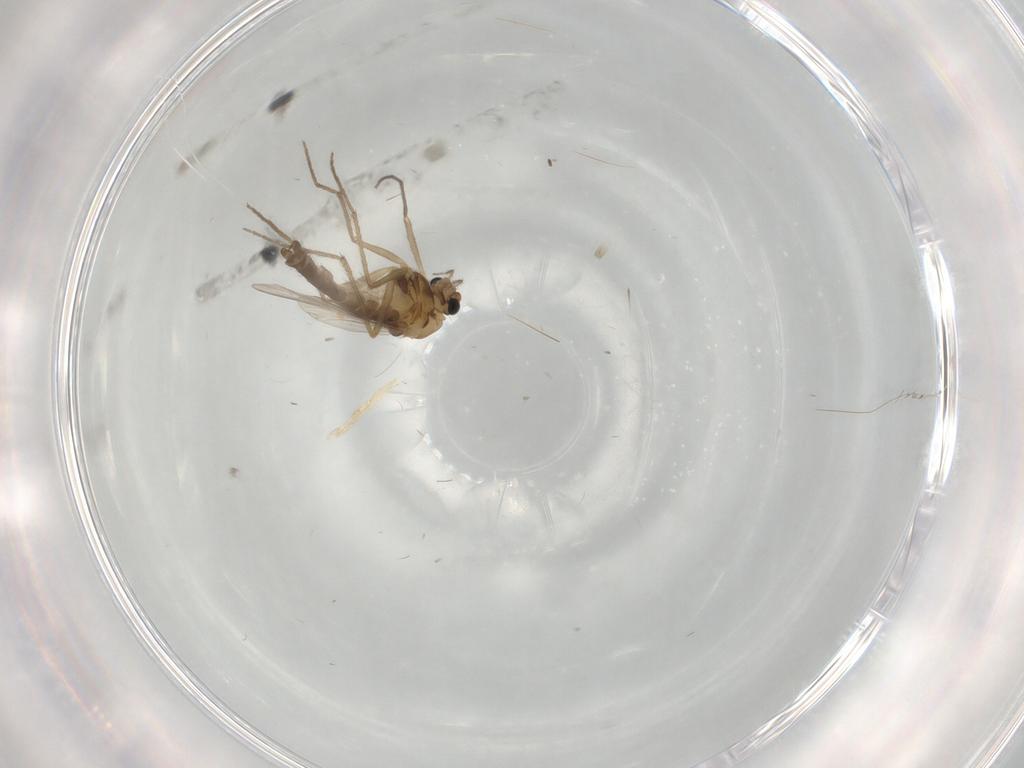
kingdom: Animalia
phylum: Arthropoda
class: Insecta
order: Diptera
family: Chironomidae
